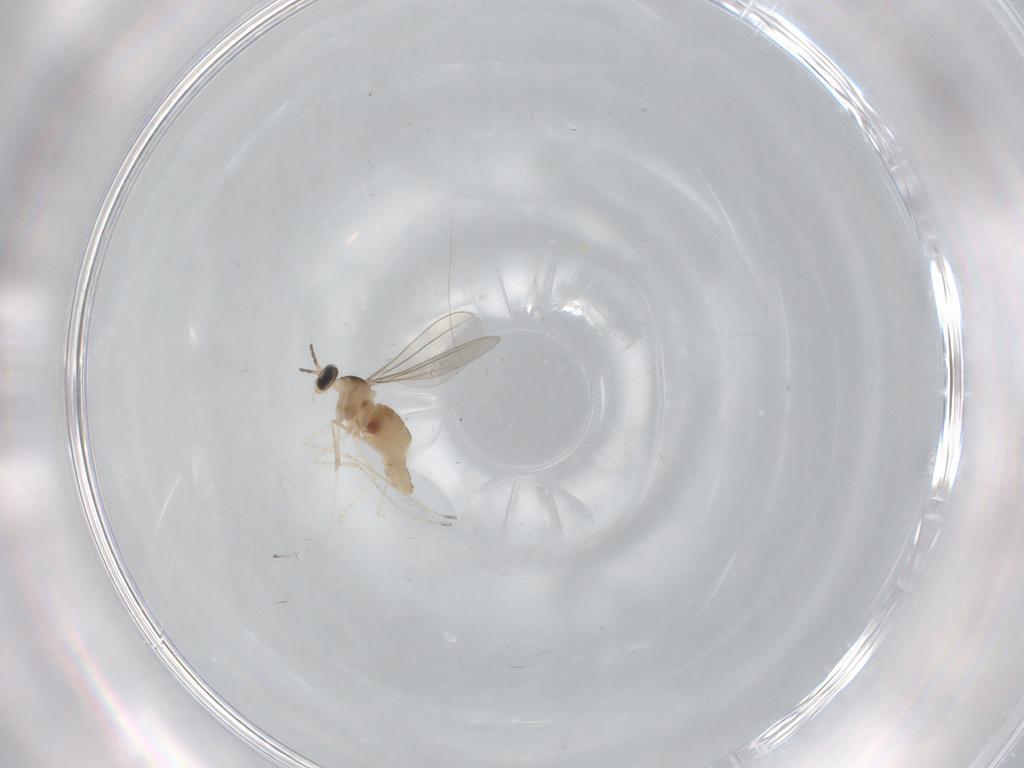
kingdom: Animalia
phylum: Arthropoda
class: Insecta
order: Diptera
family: Cecidomyiidae
